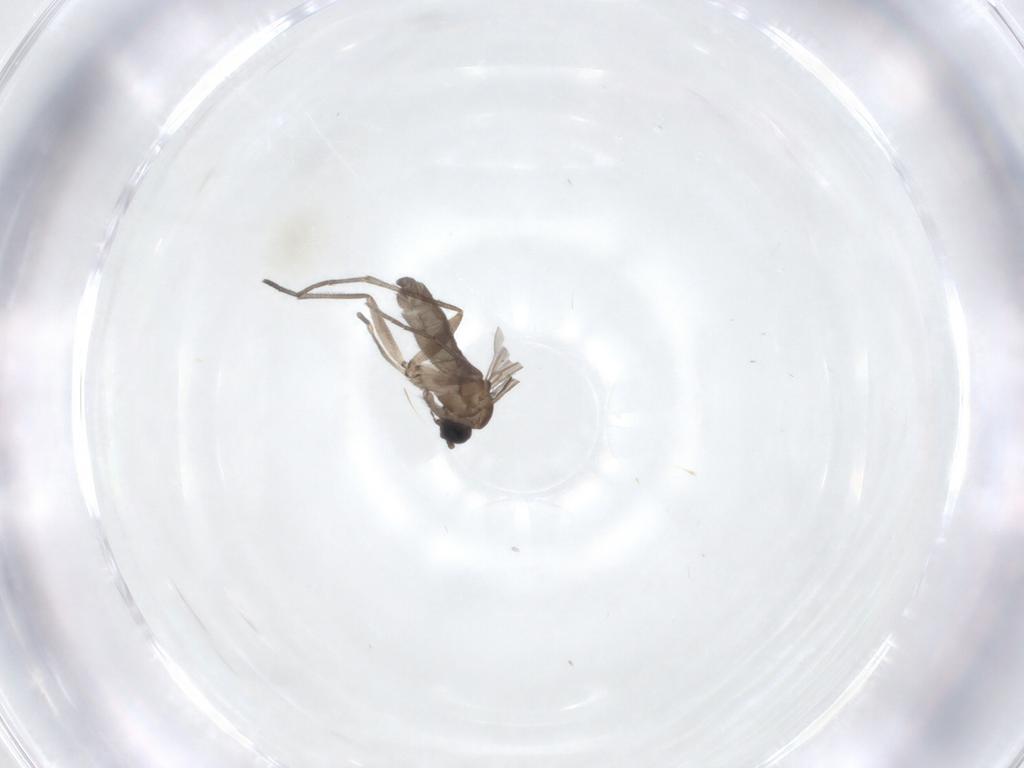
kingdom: Animalia
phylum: Arthropoda
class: Insecta
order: Diptera
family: Sciaridae
